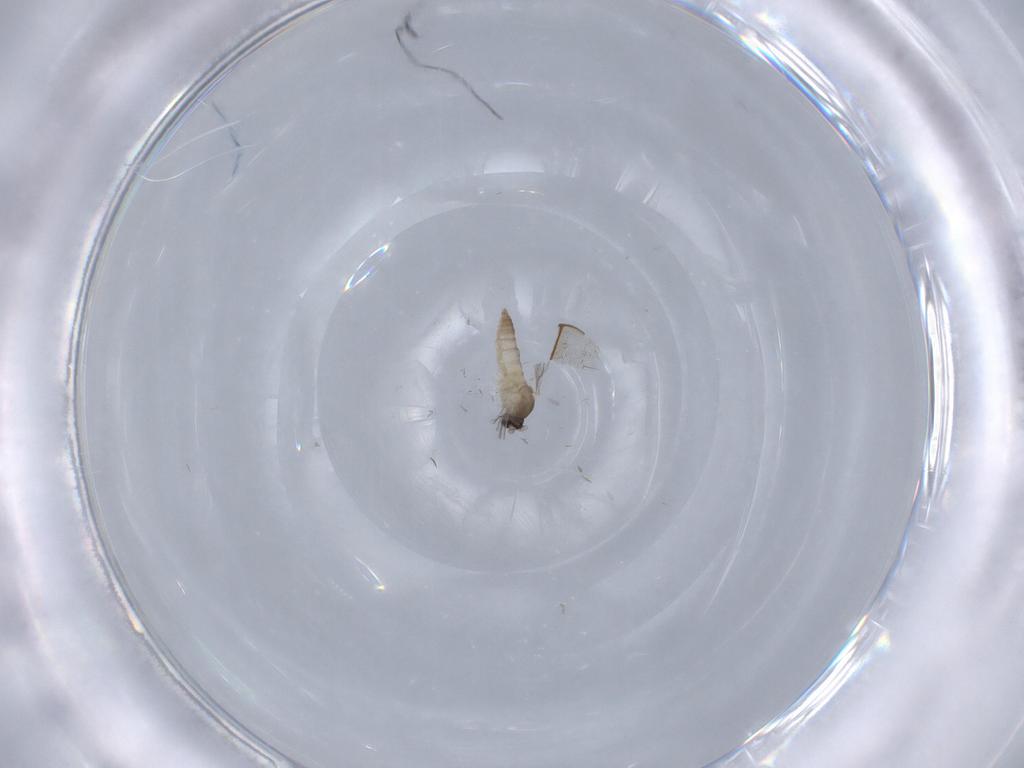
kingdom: Animalia
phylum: Arthropoda
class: Insecta
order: Diptera
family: Cecidomyiidae
